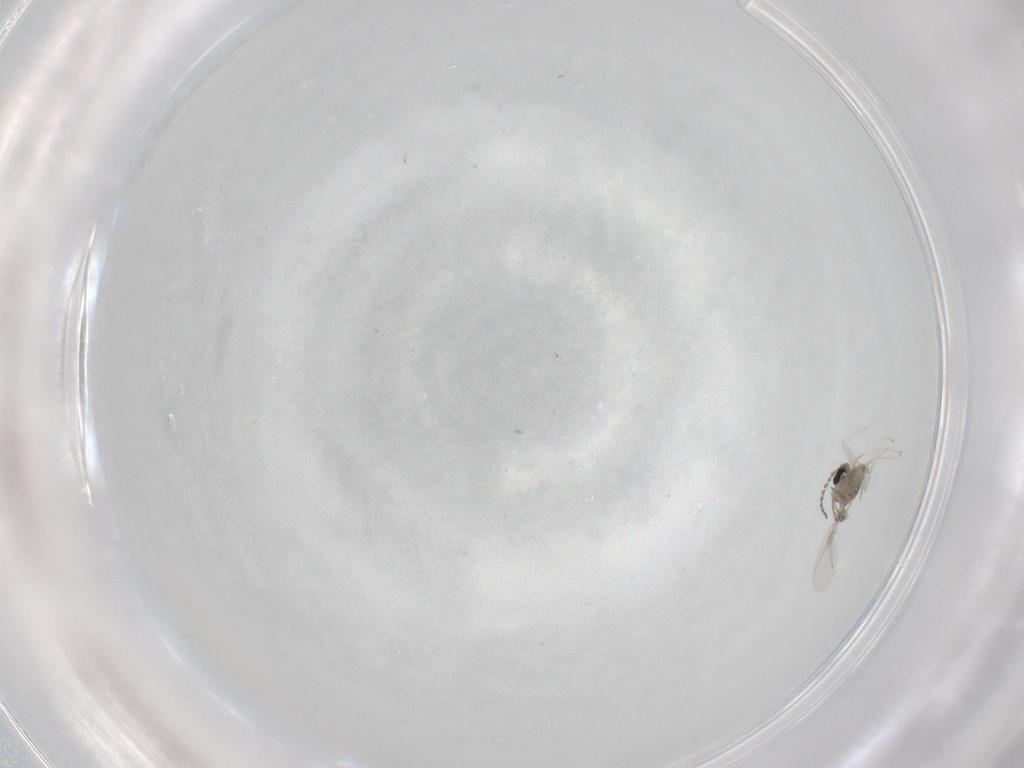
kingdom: Animalia
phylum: Arthropoda
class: Insecta
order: Diptera
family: Cecidomyiidae
